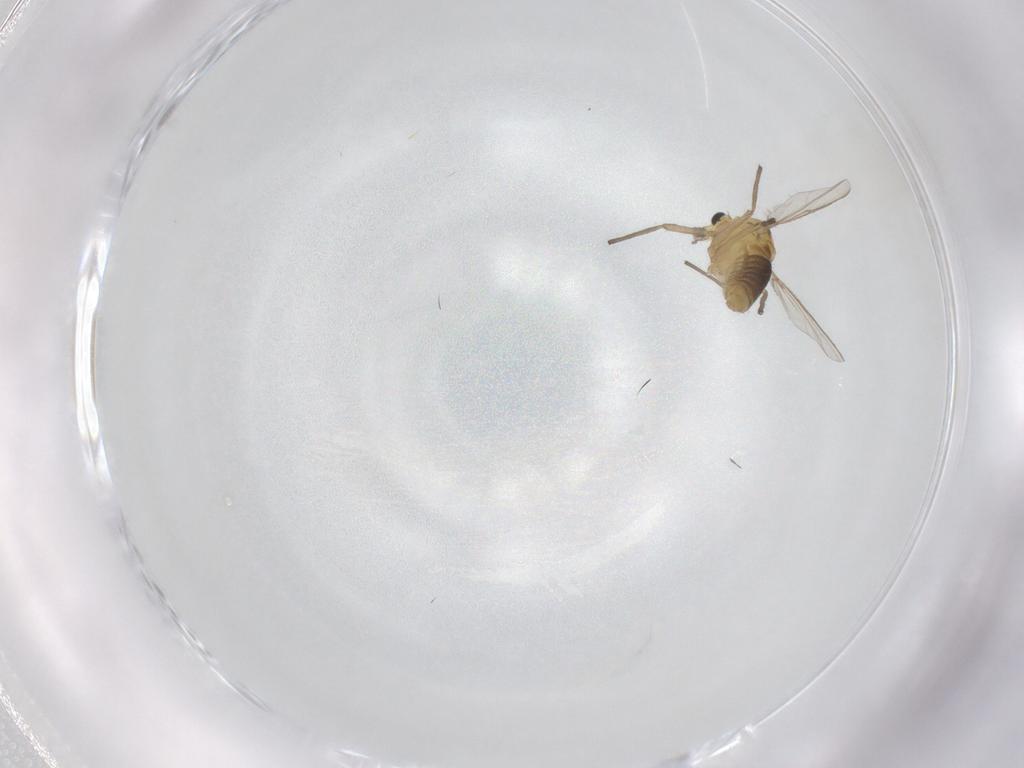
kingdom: Animalia
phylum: Arthropoda
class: Insecta
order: Diptera
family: Chironomidae
